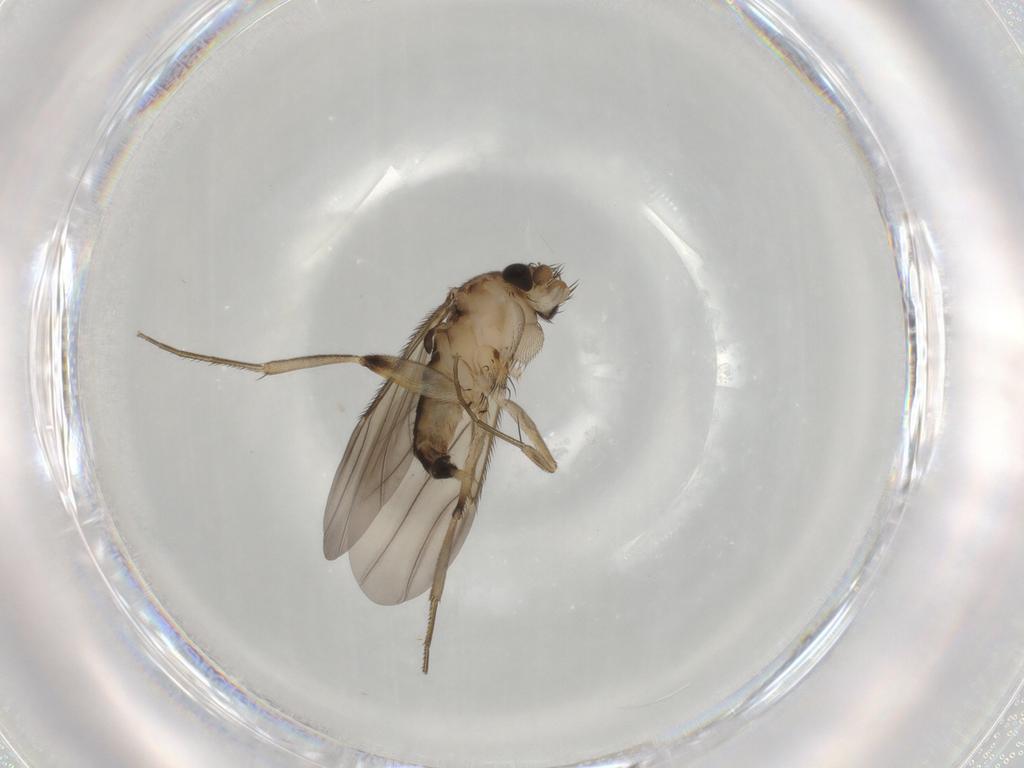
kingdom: Animalia
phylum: Arthropoda
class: Insecta
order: Diptera
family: Phoridae
